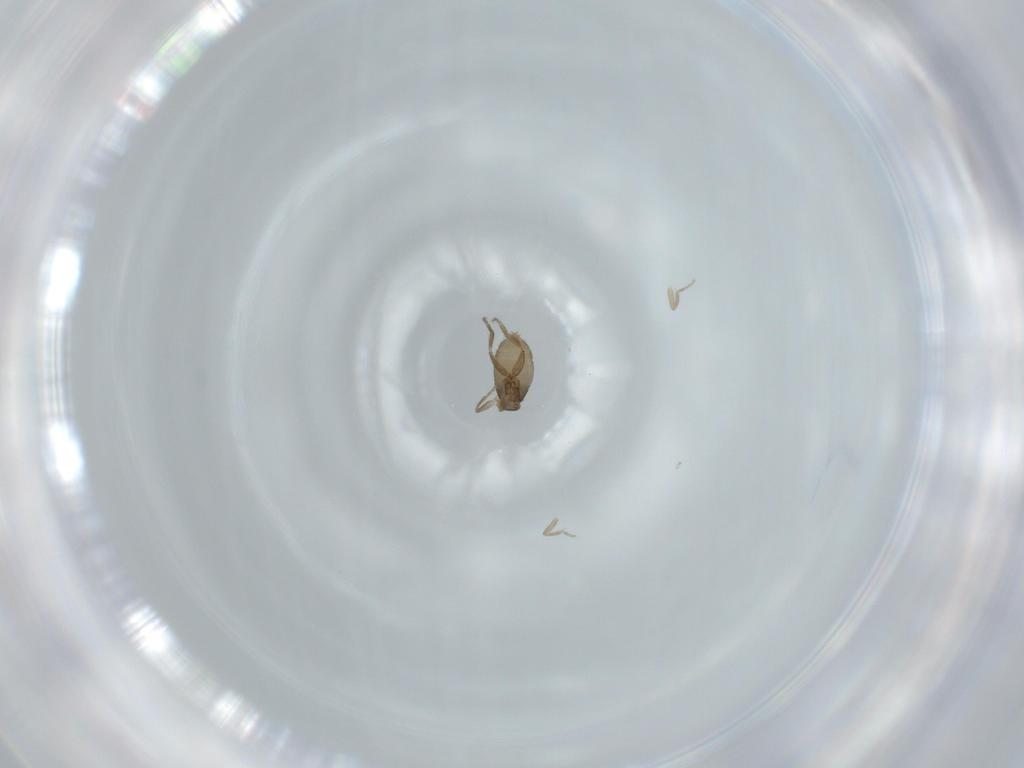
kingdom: Animalia
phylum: Arthropoda
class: Insecta
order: Diptera
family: Phoridae
